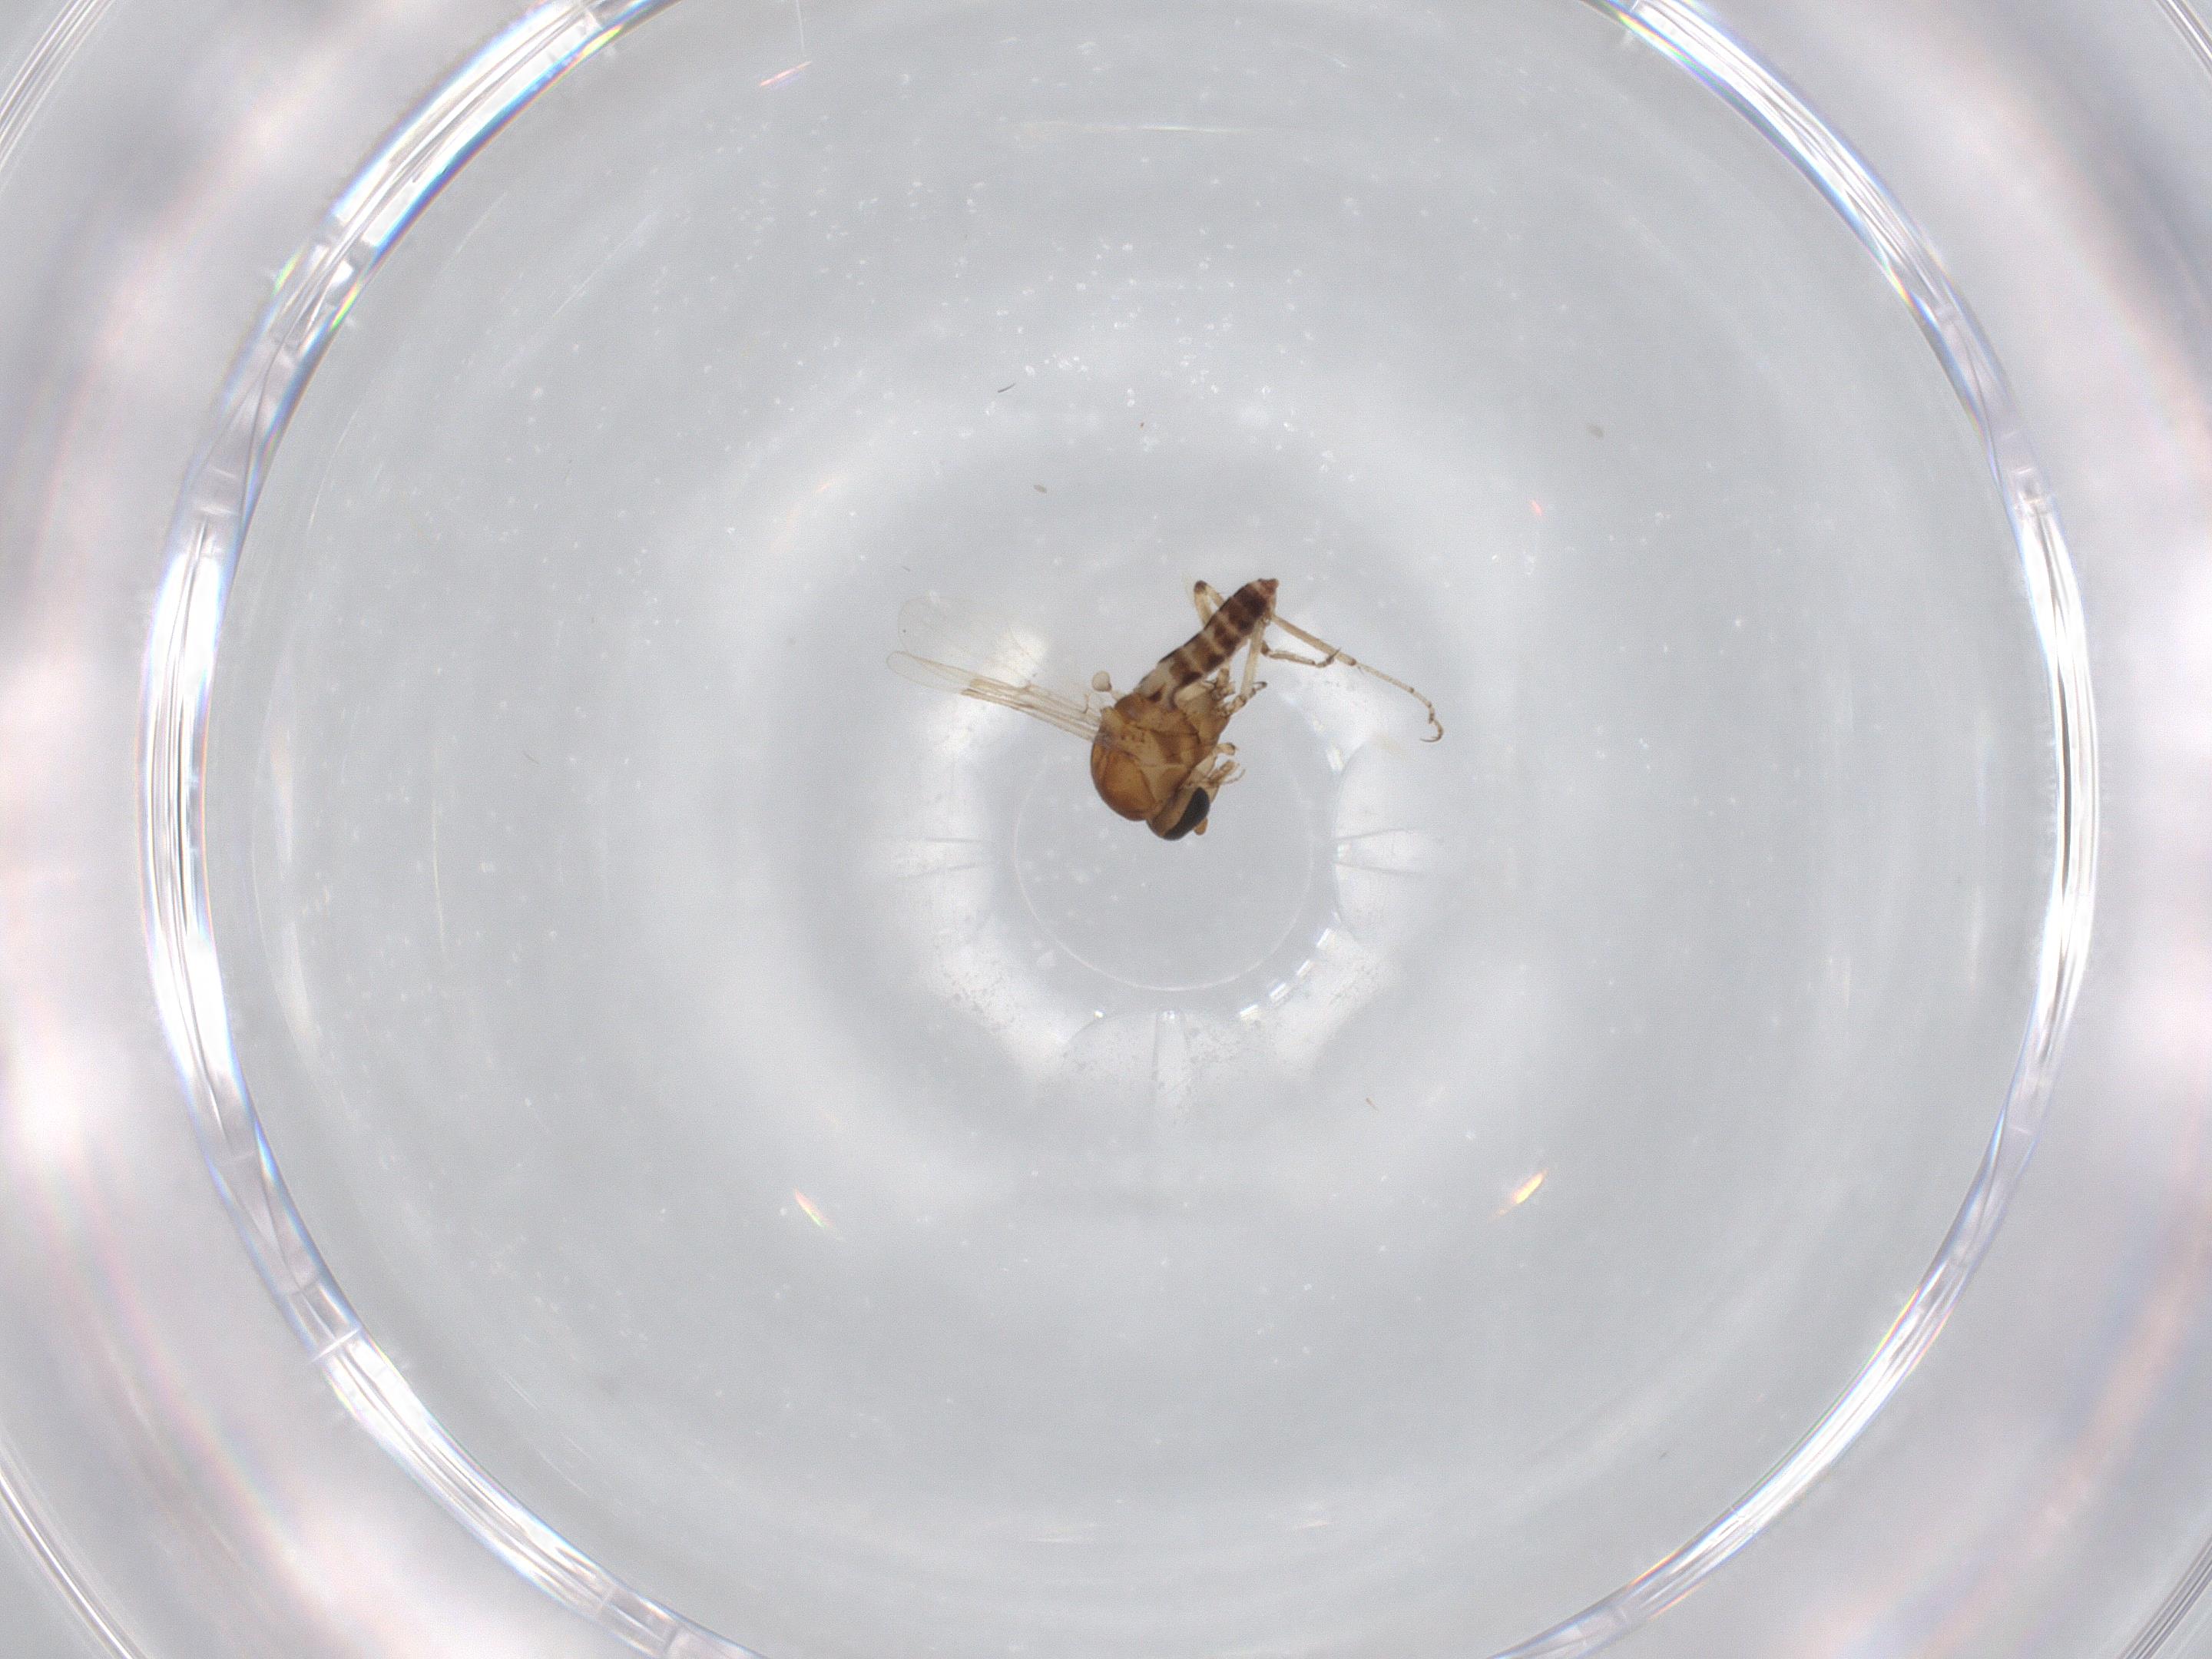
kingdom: Animalia
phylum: Arthropoda
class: Insecta
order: Diptera
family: Ceratopogonidae
